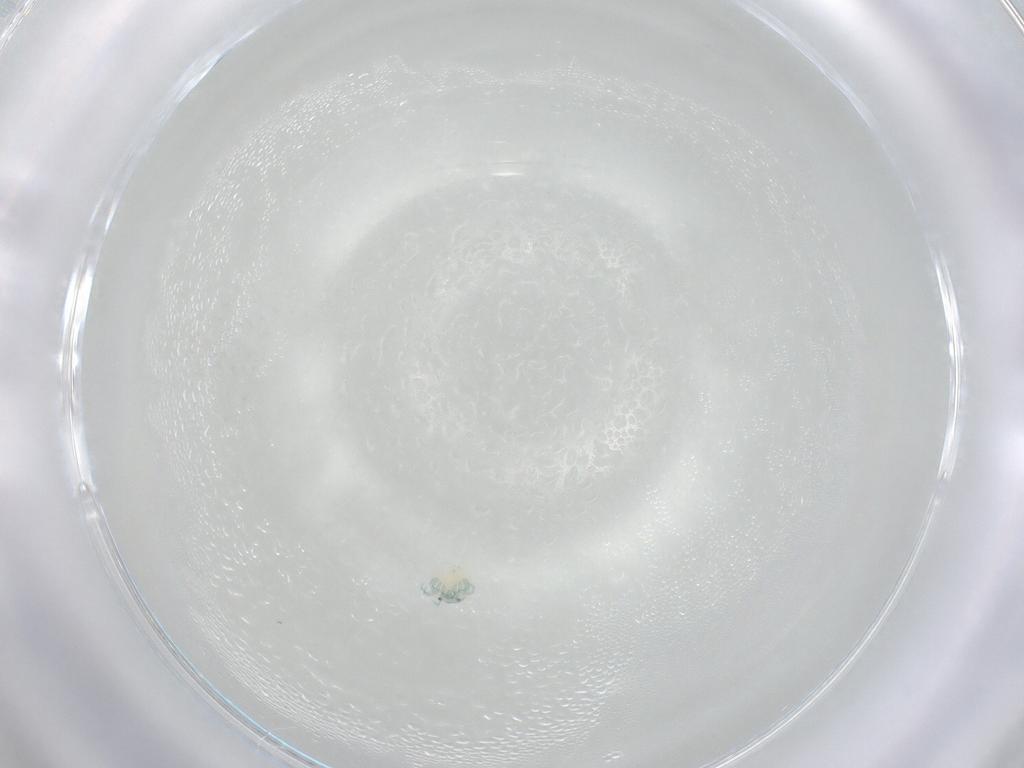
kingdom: Animalia
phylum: Arthropoda
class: Arachnida
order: Trombidiformes
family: Arrenuridae
